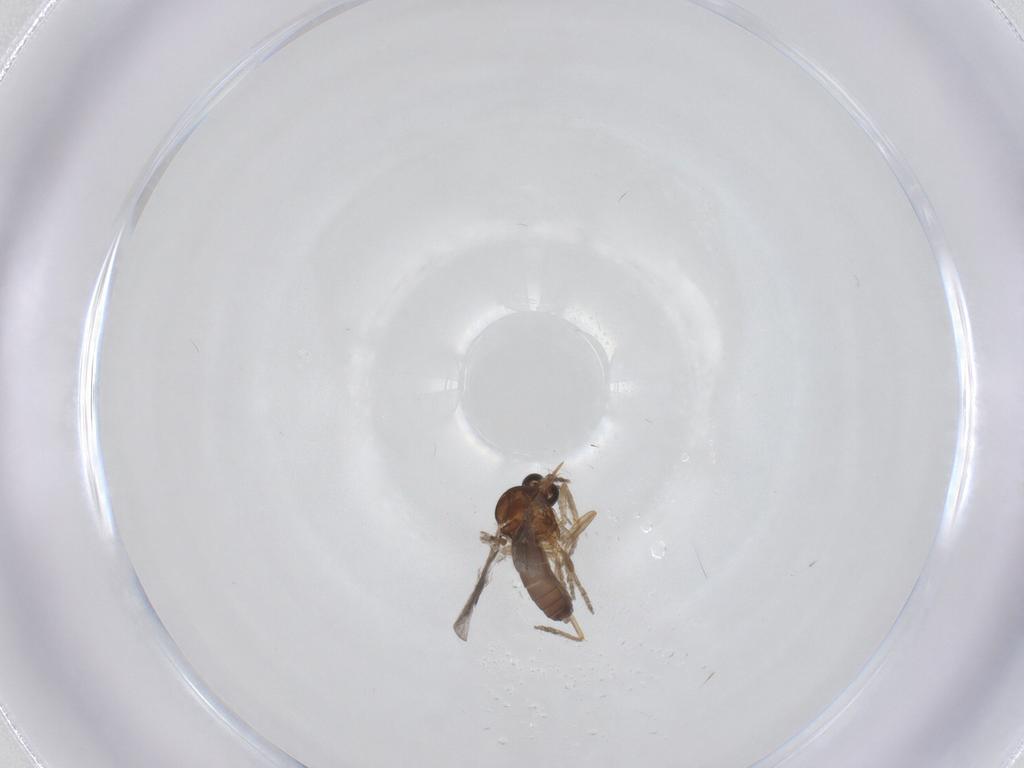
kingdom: Animalia
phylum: Arthropoda
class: Insecta
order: Diptera
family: Ceratopogonidae
